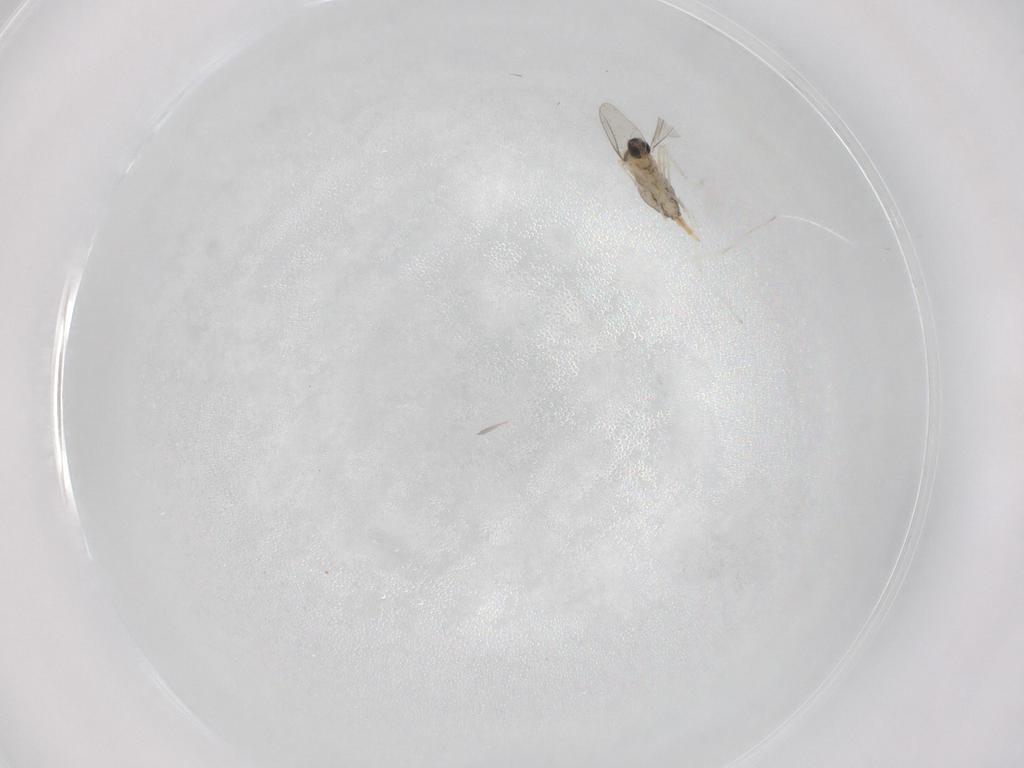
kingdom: Animalia
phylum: Arthropoda
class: Insecta
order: Diptera
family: Cecidomyiidae
